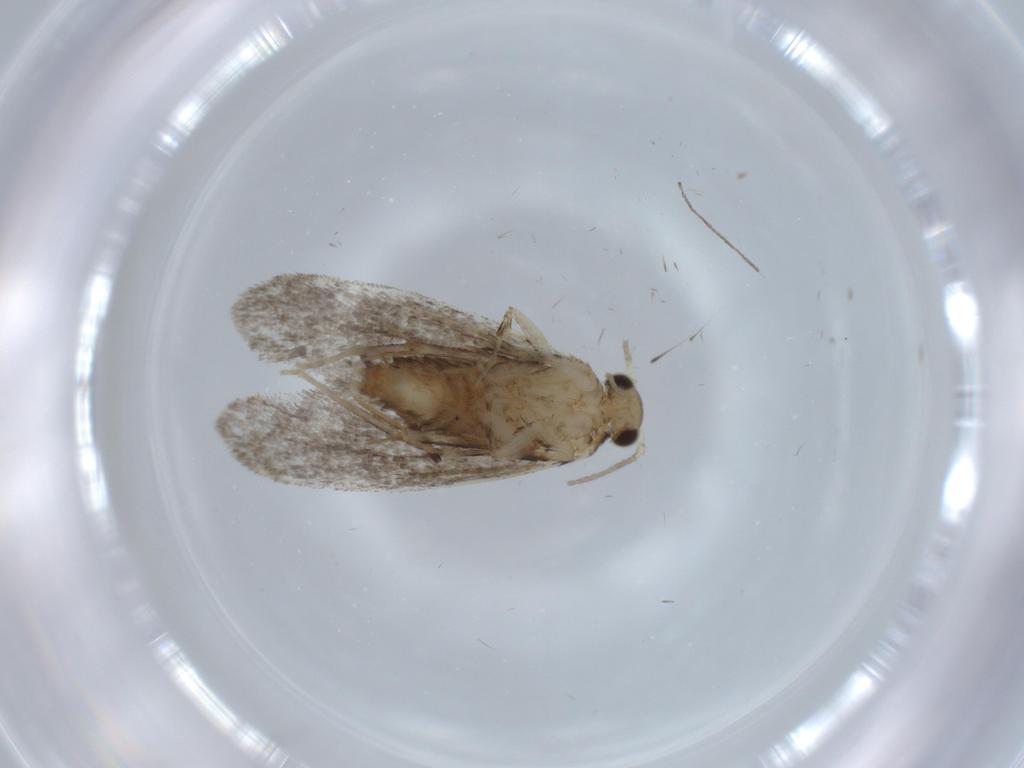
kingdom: Animalia
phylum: Arthropoda
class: Insecta
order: Lepidoptera
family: Tineidae
